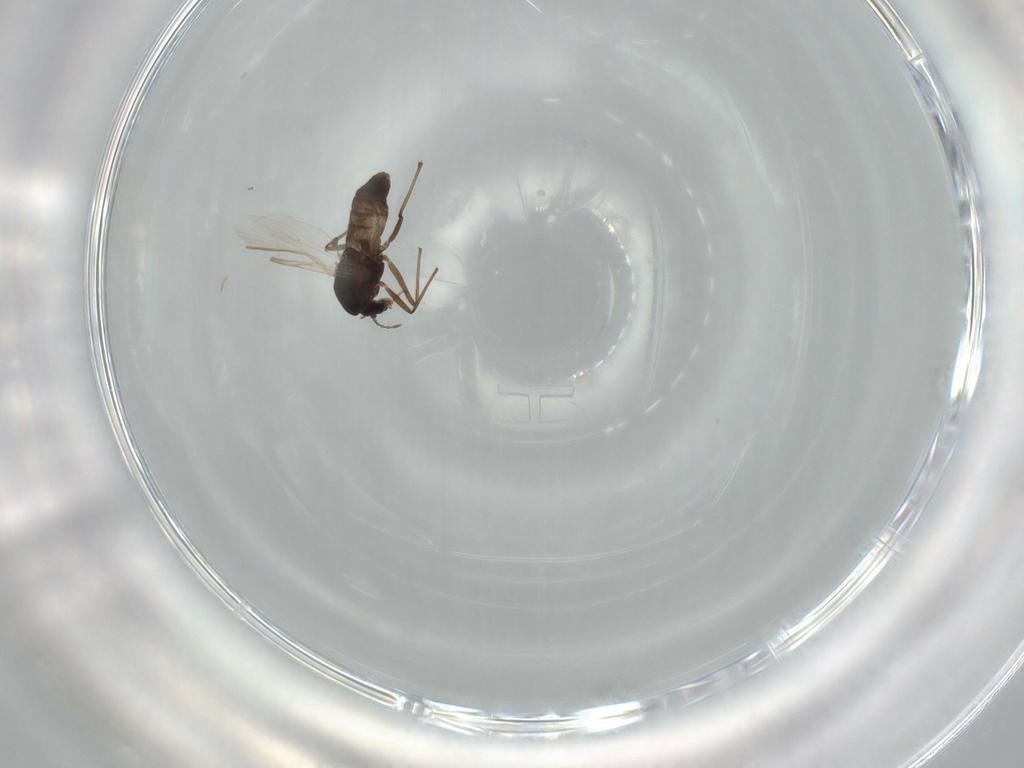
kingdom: Animalia
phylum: Arthropoda
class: Insecta
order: Diptera
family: Chironomidae
